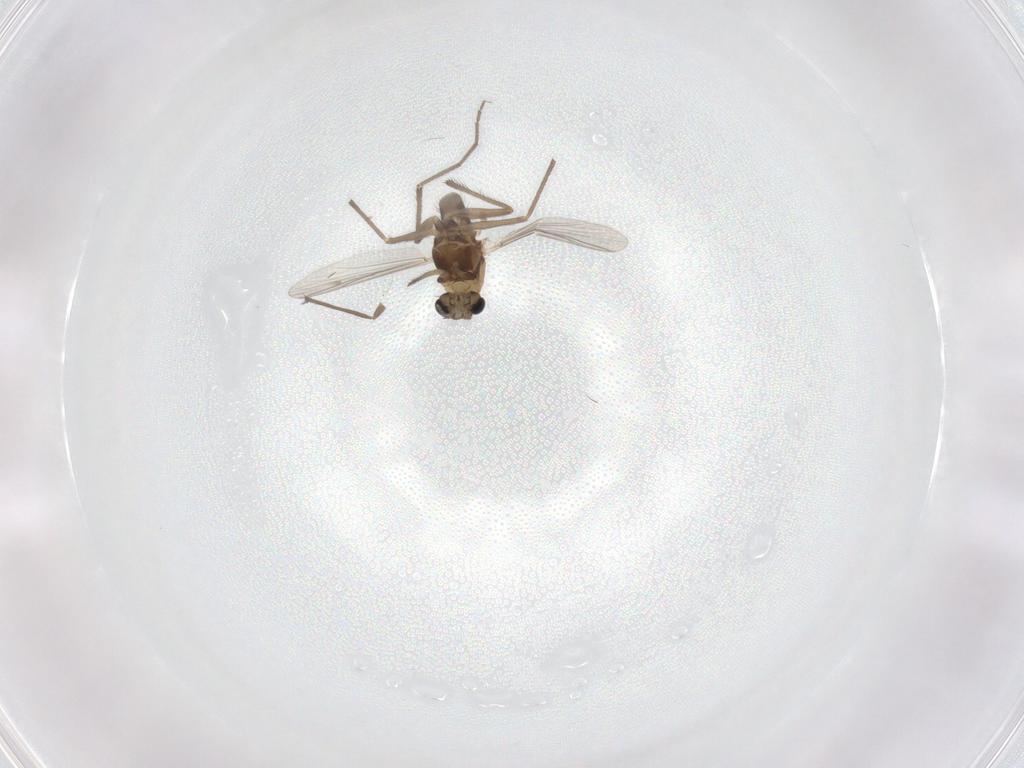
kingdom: Animalia
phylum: Arthropoda
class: Insecta
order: Diptera
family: Chironomidae
